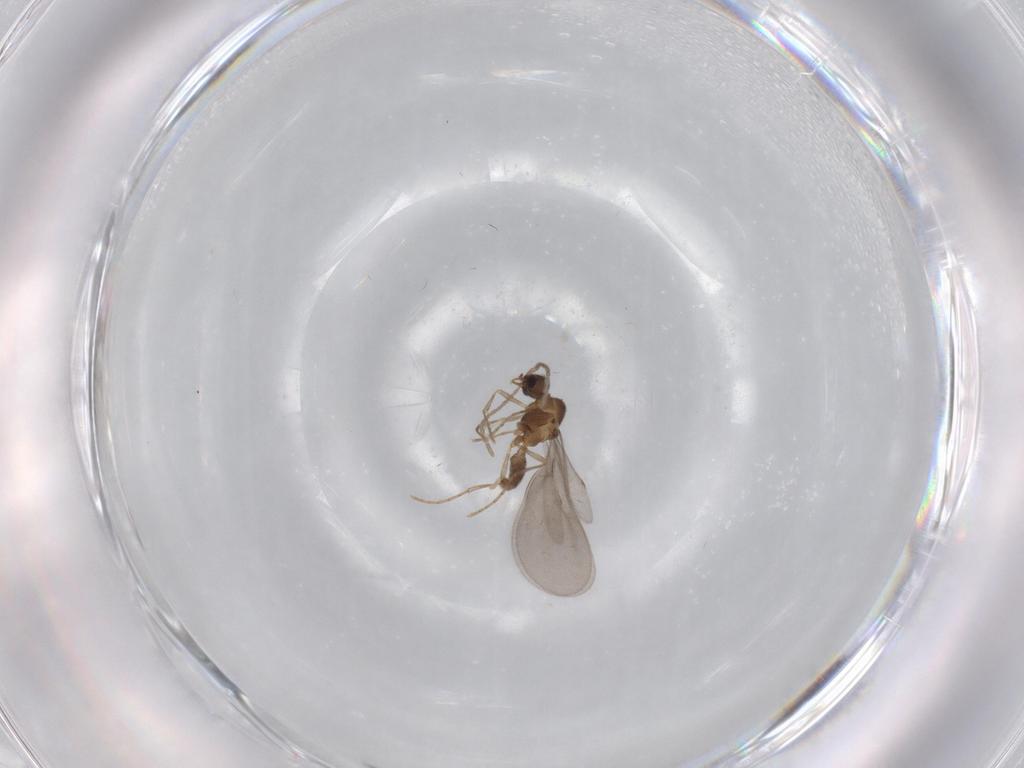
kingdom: Animalia
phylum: Arthropoda
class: Insecta
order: Hymenoptera
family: Formicidae
